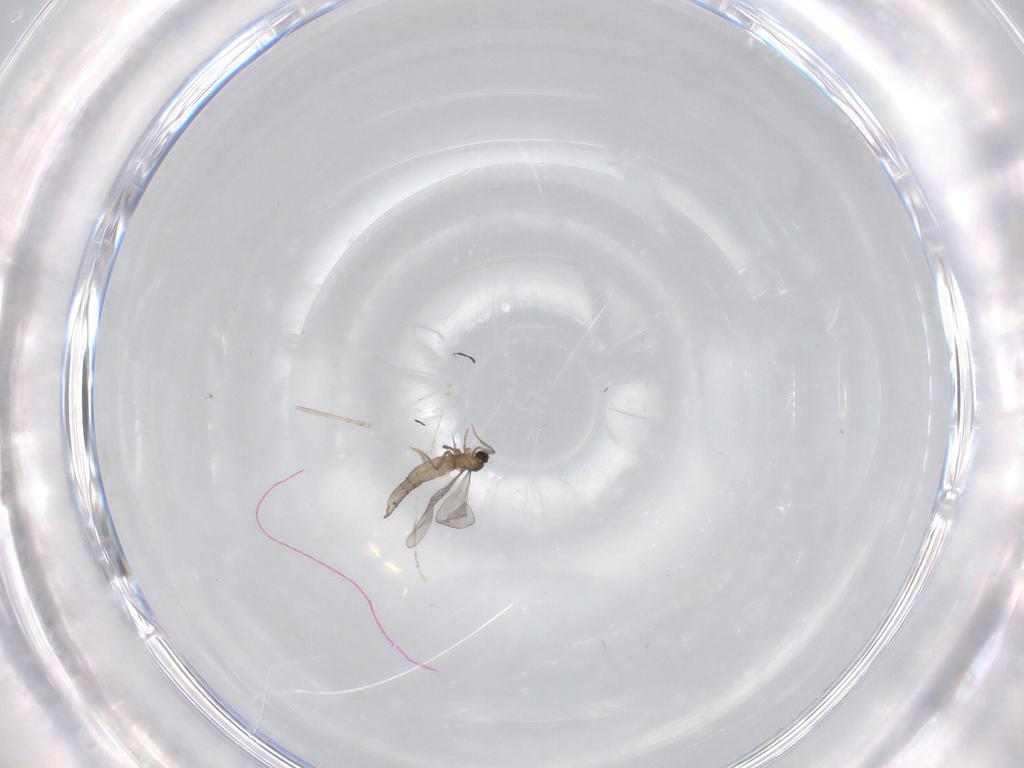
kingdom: Animalia
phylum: Arthropoda
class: Insecta
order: Diptera
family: Cecidomyiidae
